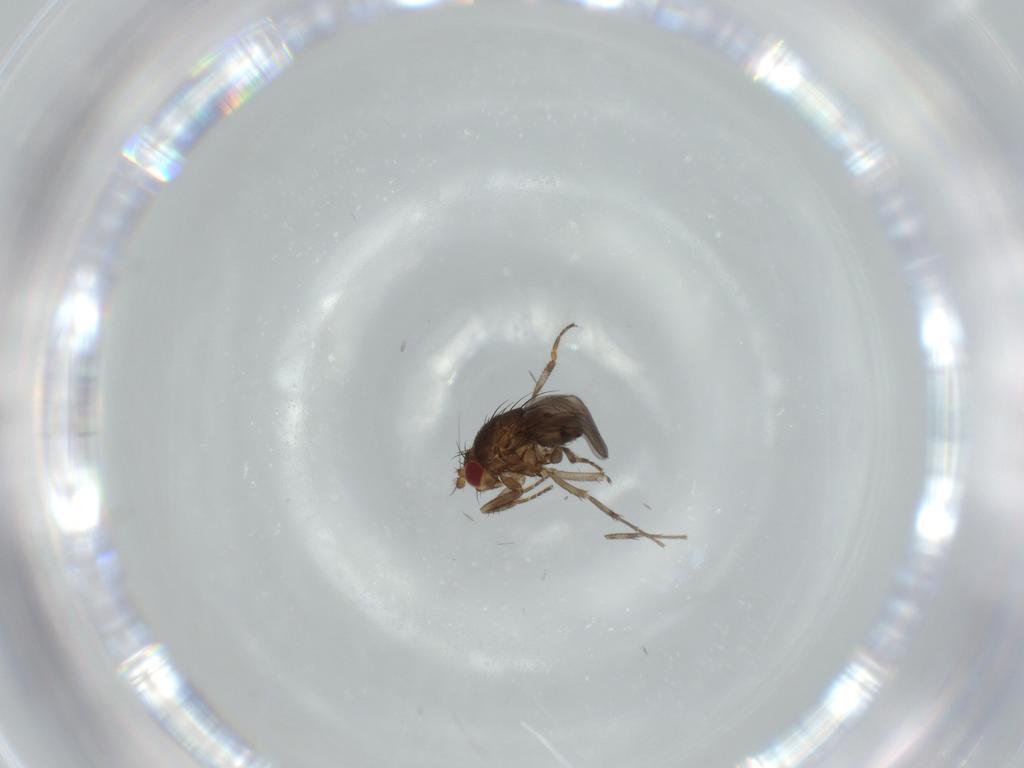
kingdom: Animalia
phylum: Arthropoda
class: Insecta
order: Diptera
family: Sphaeroceridae
